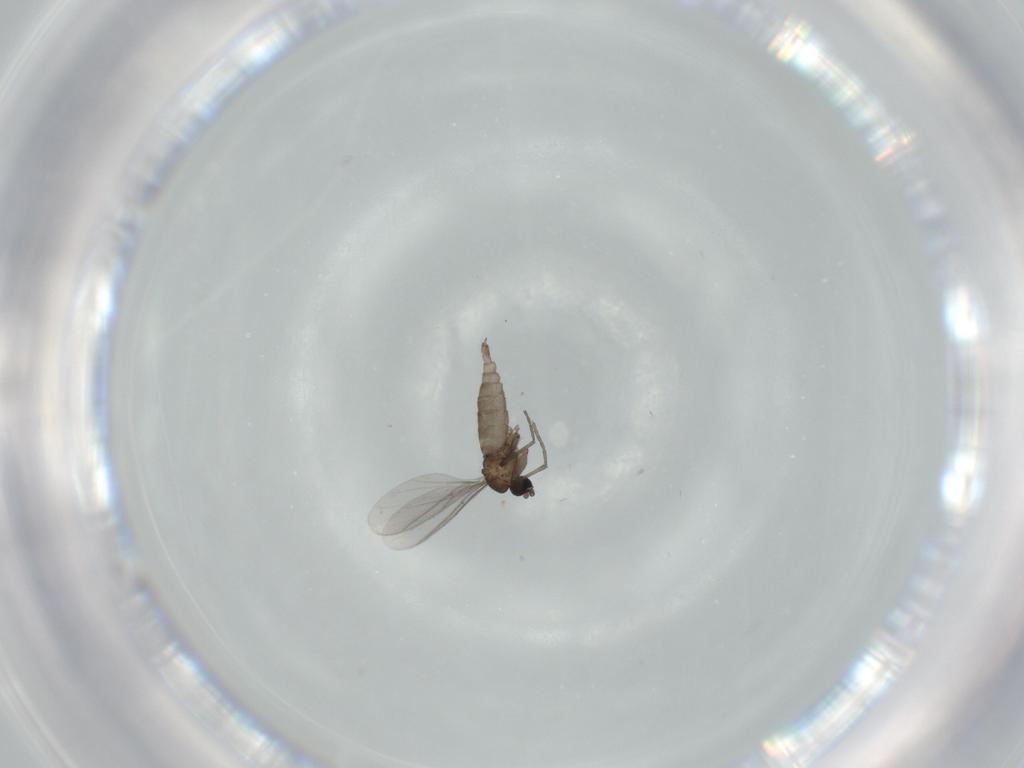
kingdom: Animalia
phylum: Arthropoda
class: Insecta
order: Diptera
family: Sciaridae
